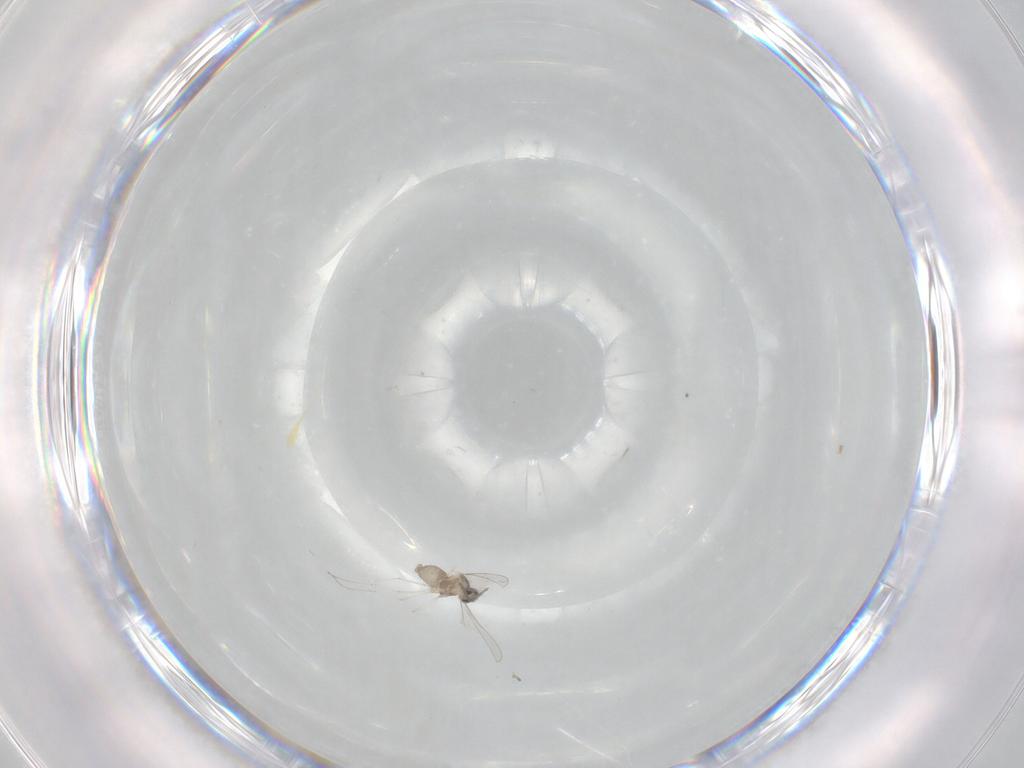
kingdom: Animalia
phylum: Arthropoda
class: Insecta
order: Diptera
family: Cecidomyiidae
